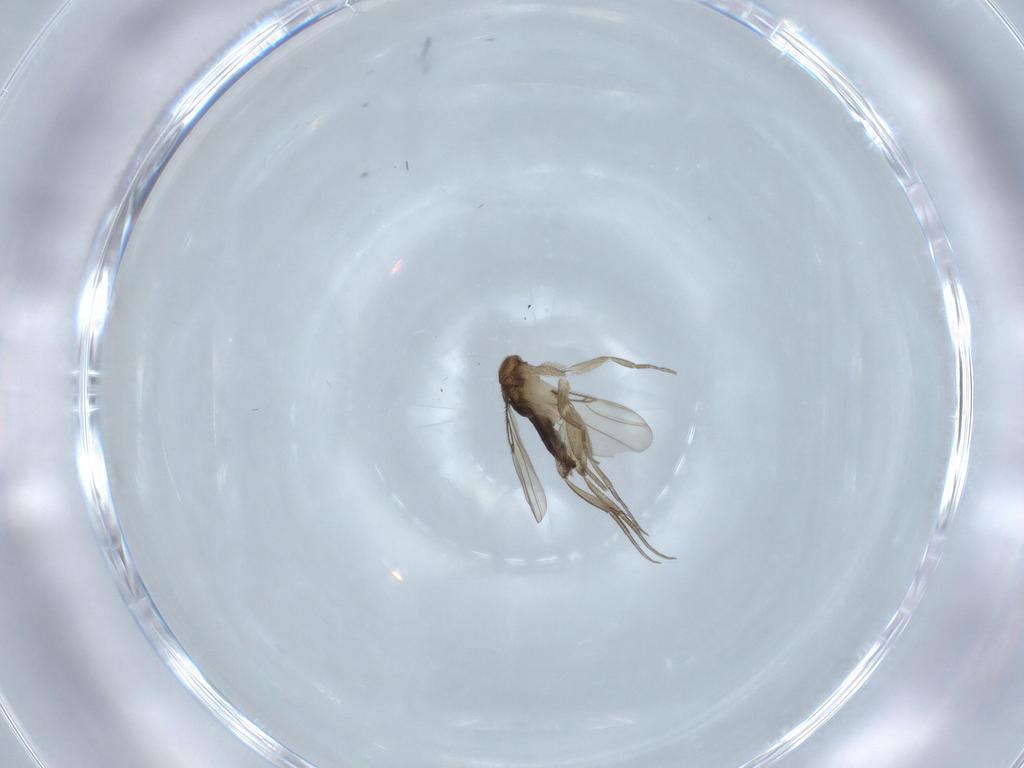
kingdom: Animalia
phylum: Arthropoda
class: Insecta
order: Diptera
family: Phoridae
